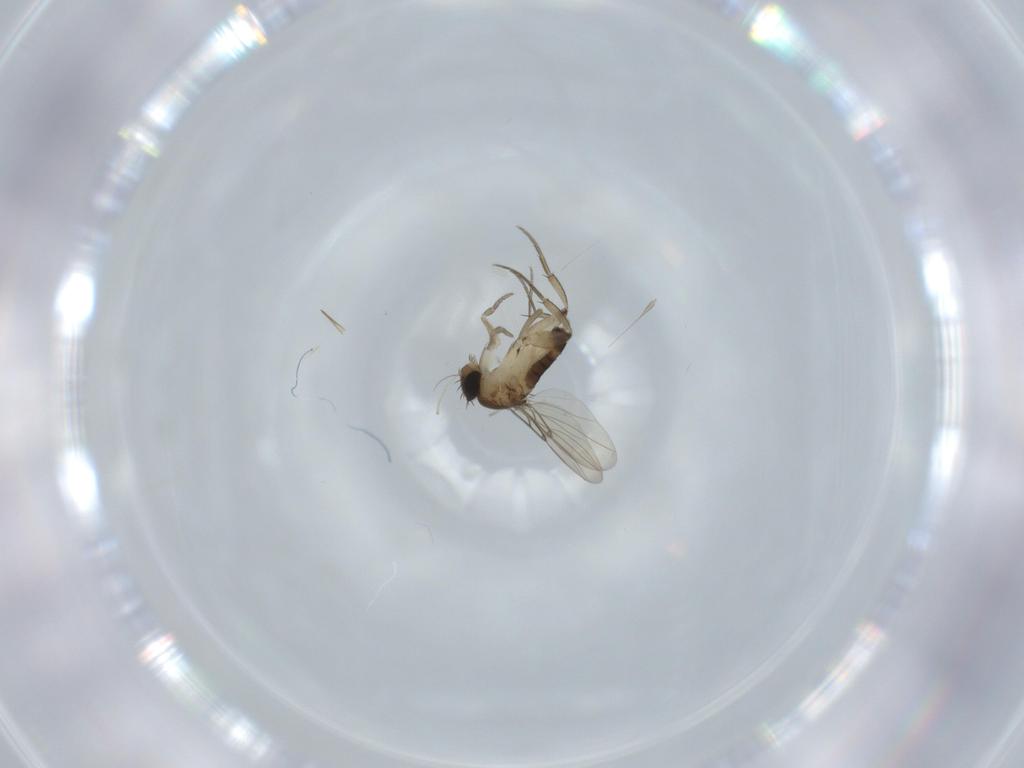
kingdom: Animalia
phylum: Arthropoda
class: Insecta
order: Diptera
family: Phoridae
